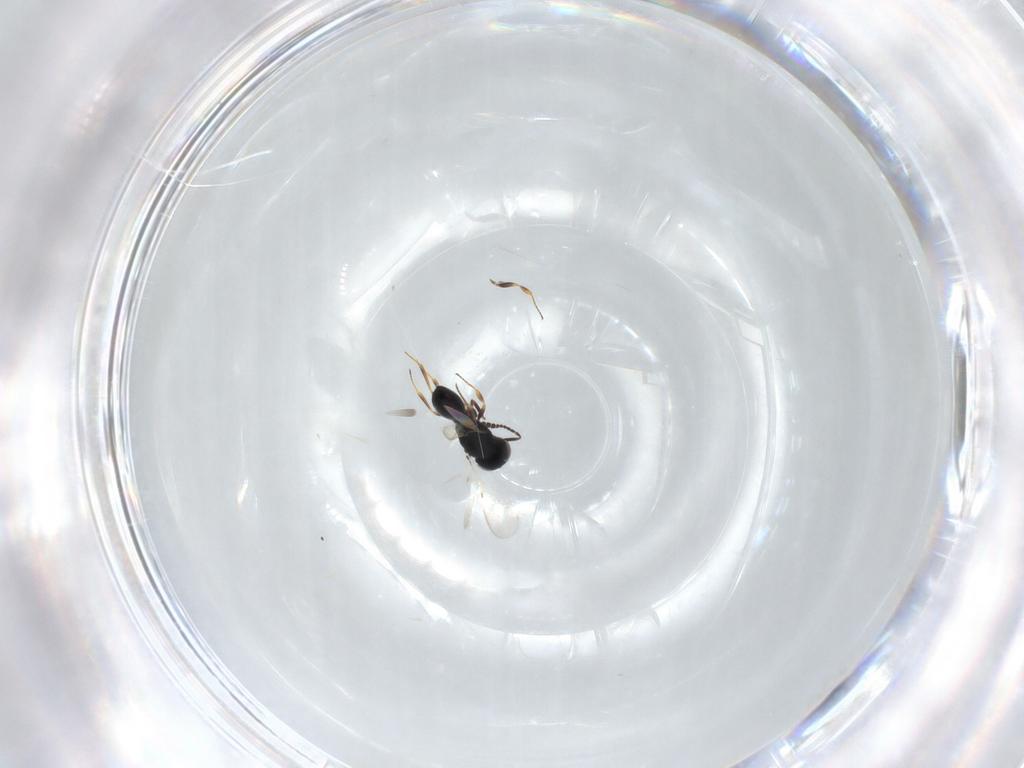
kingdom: Animalia
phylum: Arthropoda
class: Insecta
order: Hymenoptera
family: Scelionidae
